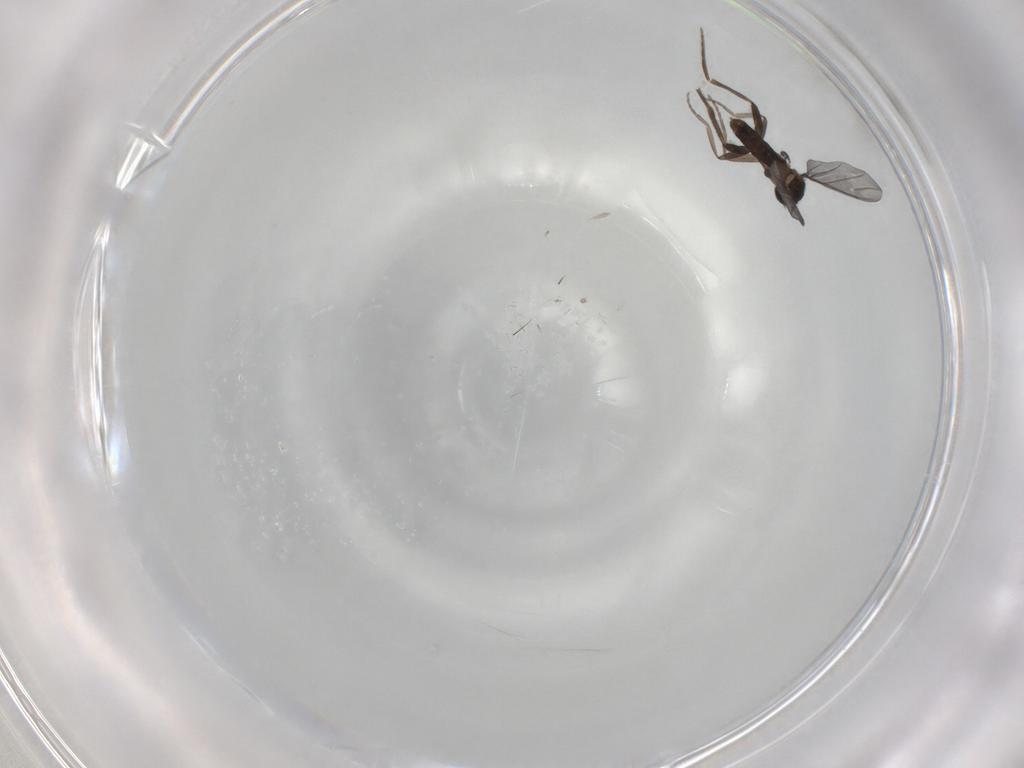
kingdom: Animalia
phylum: Arthropoda
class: Insecta
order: Diptera
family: Phoridae
